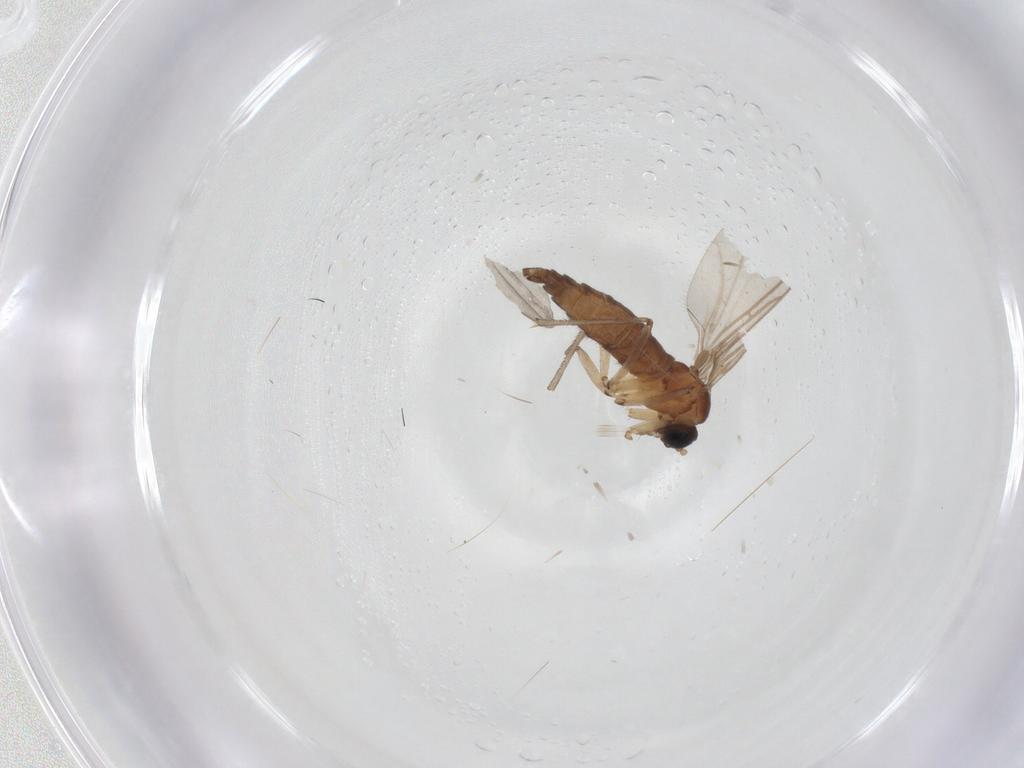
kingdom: Animalia
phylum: Arthropoda
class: Insecta
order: Diptera
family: Sciaridae
